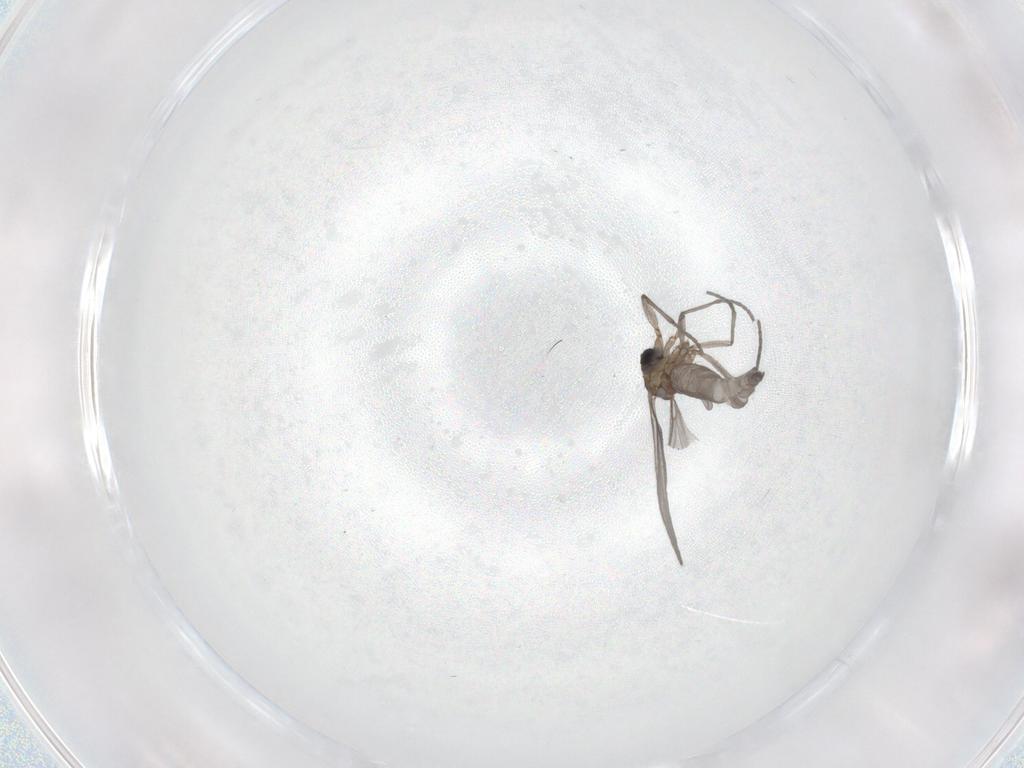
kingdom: Animalia
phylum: Arthropoda
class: Insecta
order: Diptera
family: Sciaridae
